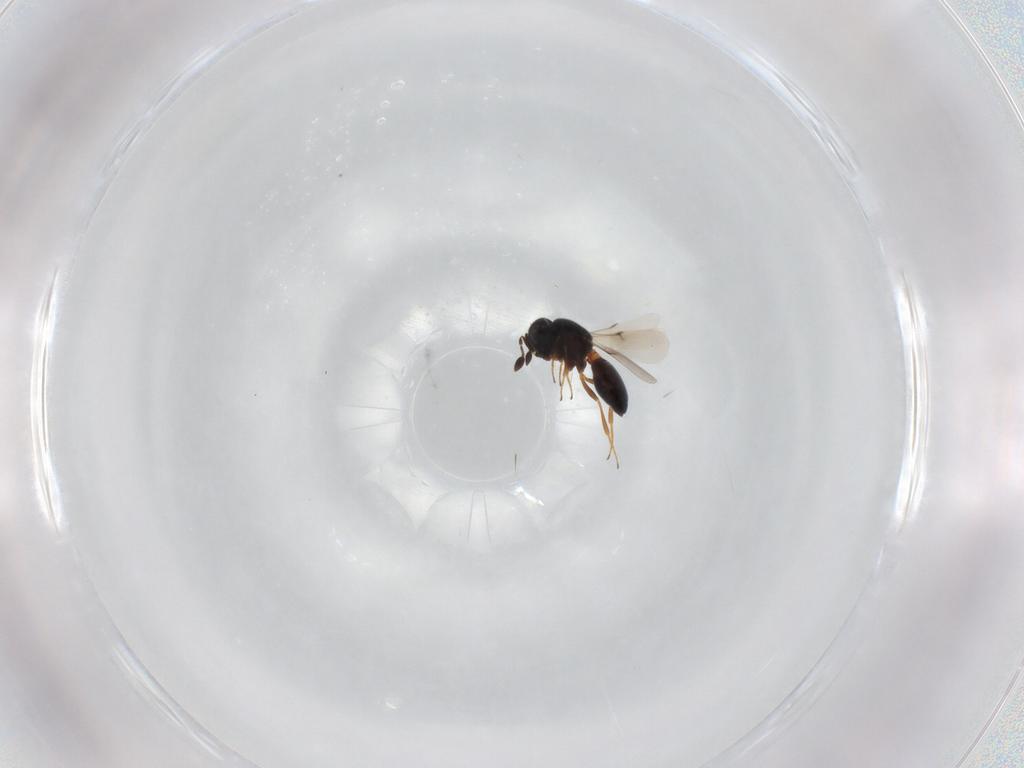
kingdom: Animalia
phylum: Arthropoda
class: Insecta
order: Hymenoptera
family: Scelionidae
